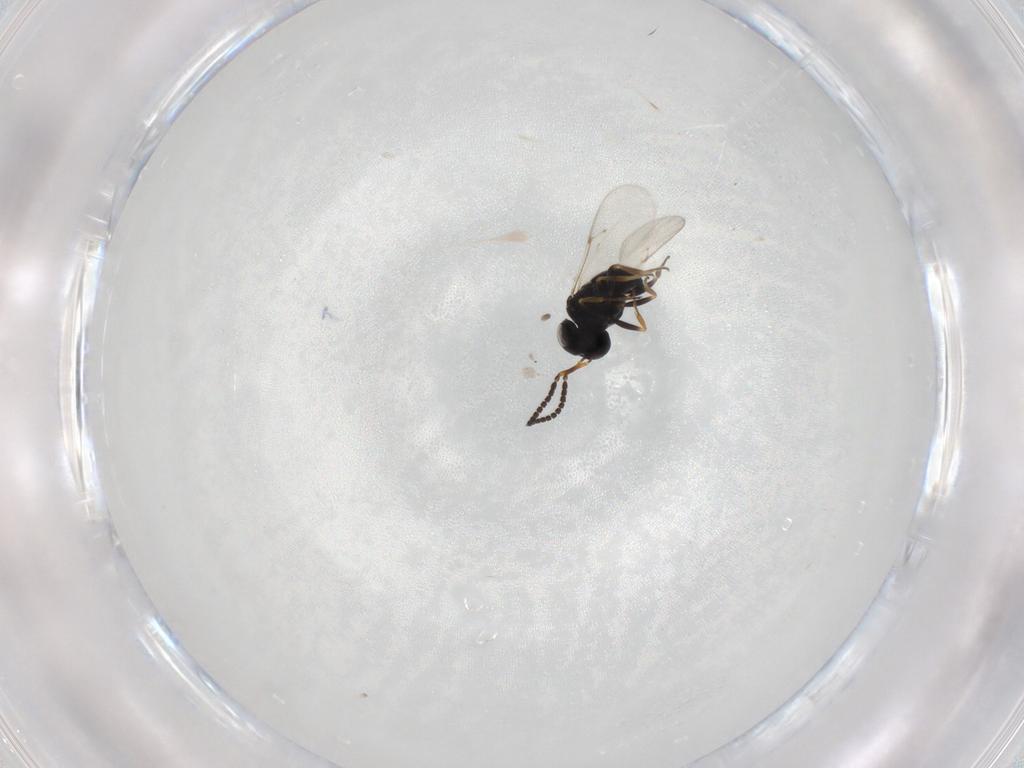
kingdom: Animalia
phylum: Arthropoda
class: Insecta
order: Coleoptera
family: Curculionidae
